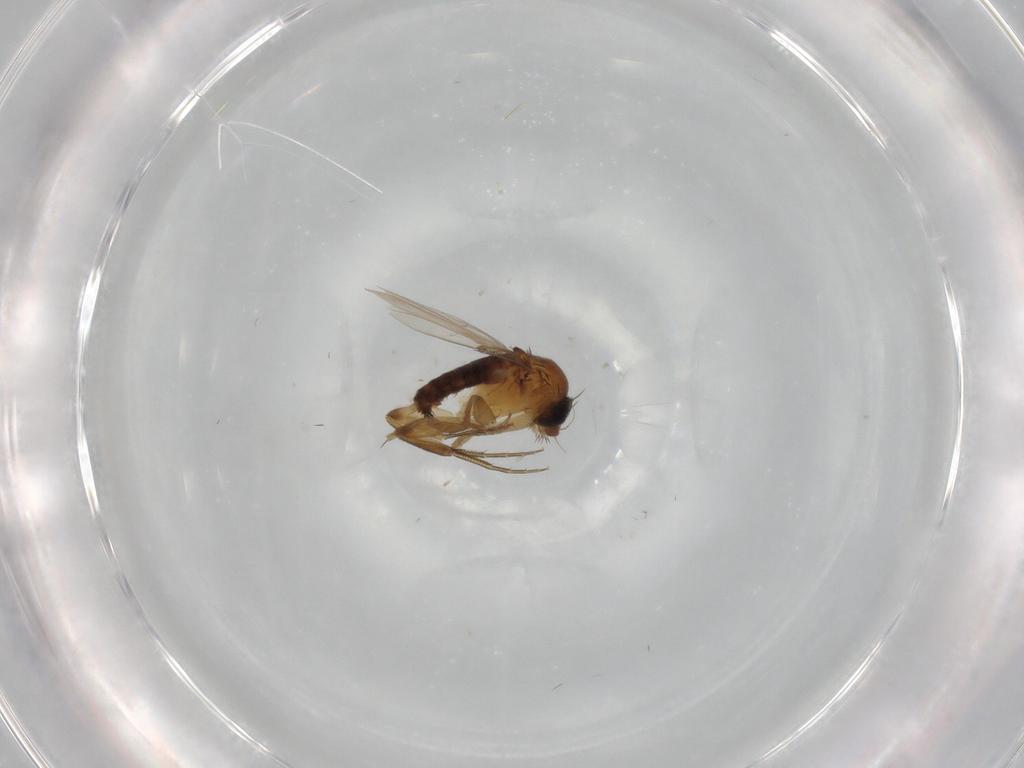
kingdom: Animalia
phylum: Arthropoda
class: Insecta
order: Diptera
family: Phoridae
